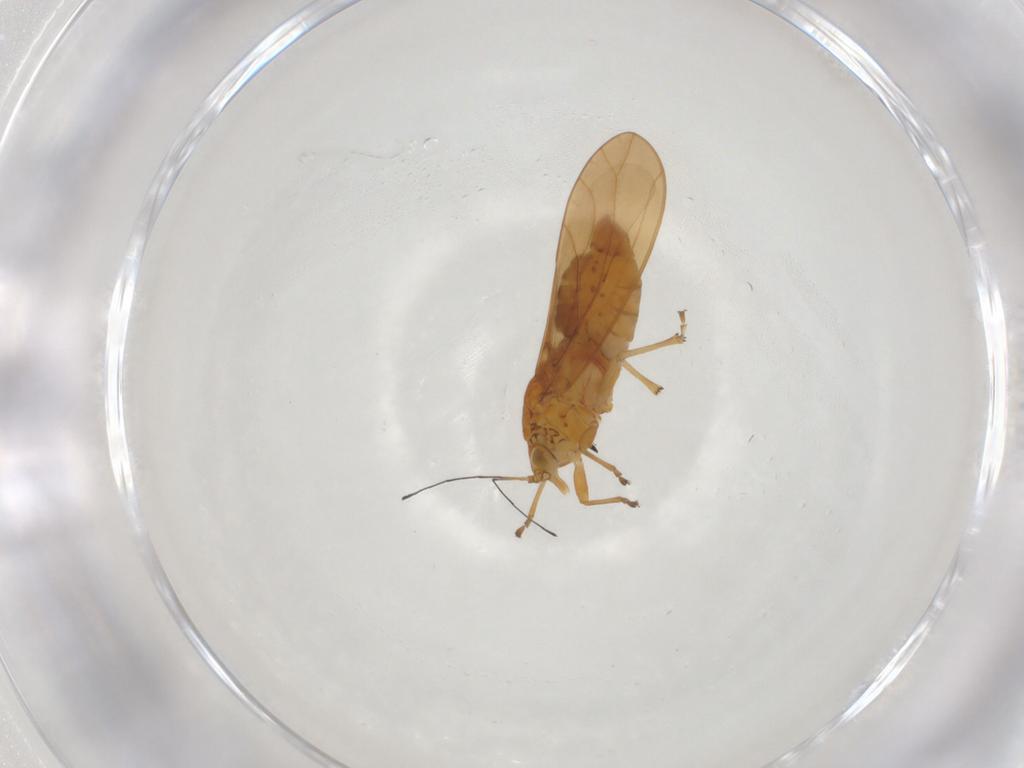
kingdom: Animalia
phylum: Arthropoda
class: Insecta
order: Hemiptera
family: Triozidae
